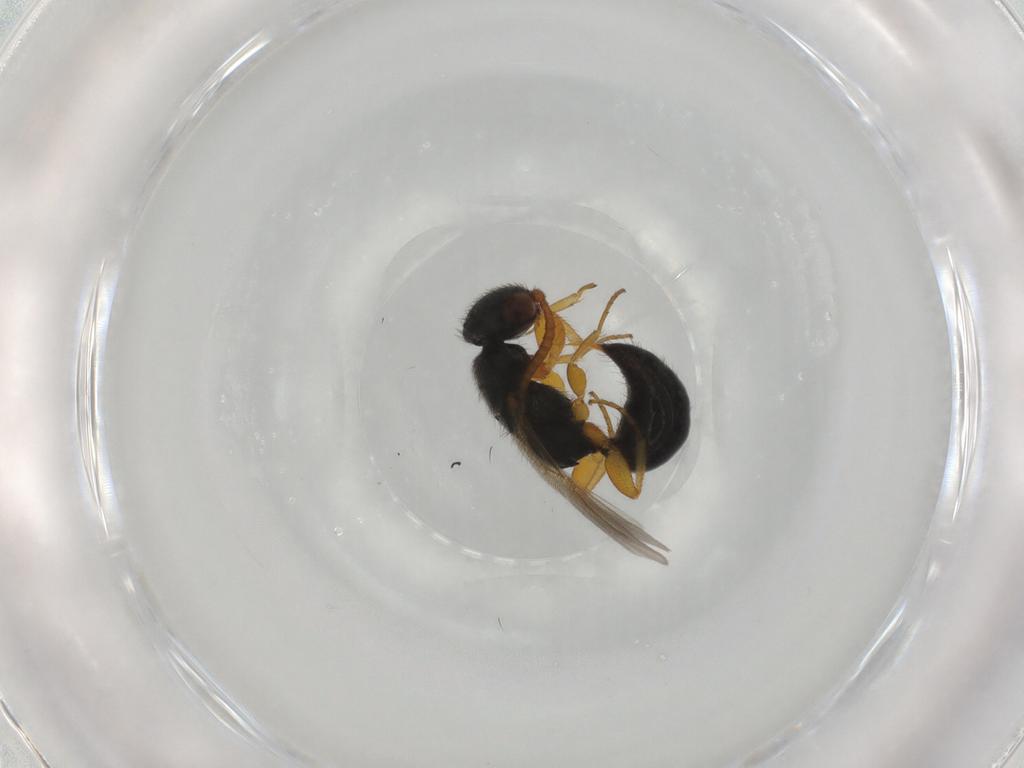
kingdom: Animalia
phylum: Arthropoda
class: Insecta
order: Hymenoptera
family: Bethylidae
